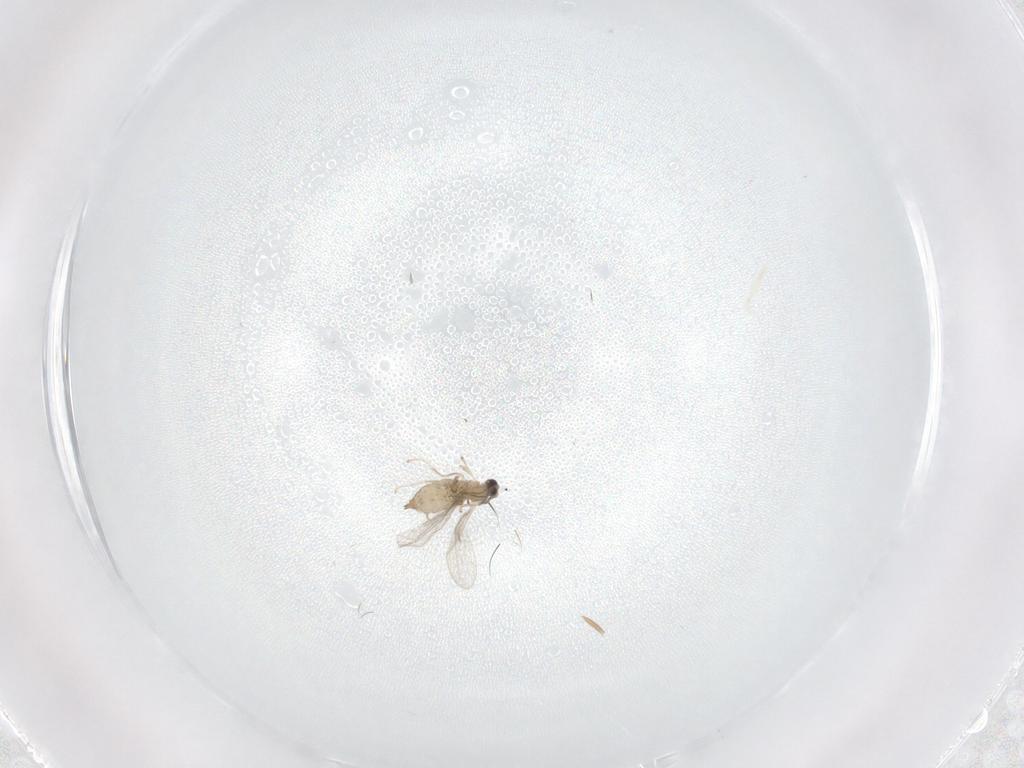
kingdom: Animalia
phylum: Arthropoda
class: Insecta
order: Diptera
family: Cecidomyiidae
